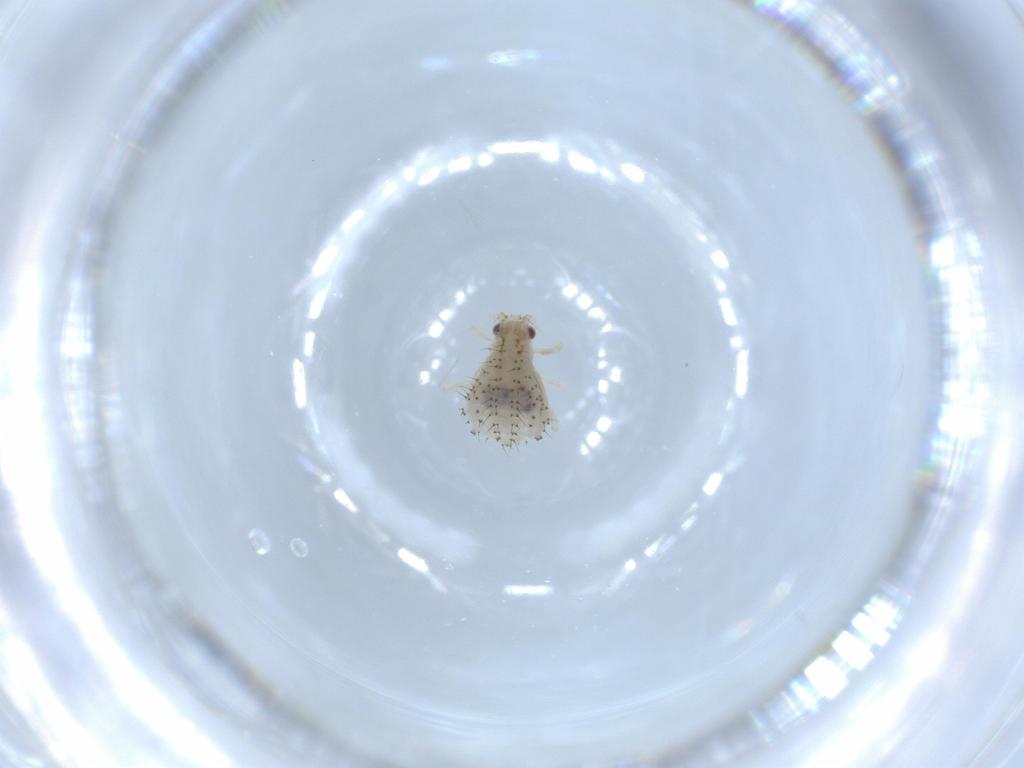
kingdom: Animalia
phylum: Arthropoda
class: Insecta
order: Hemiptera
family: Aphididae
